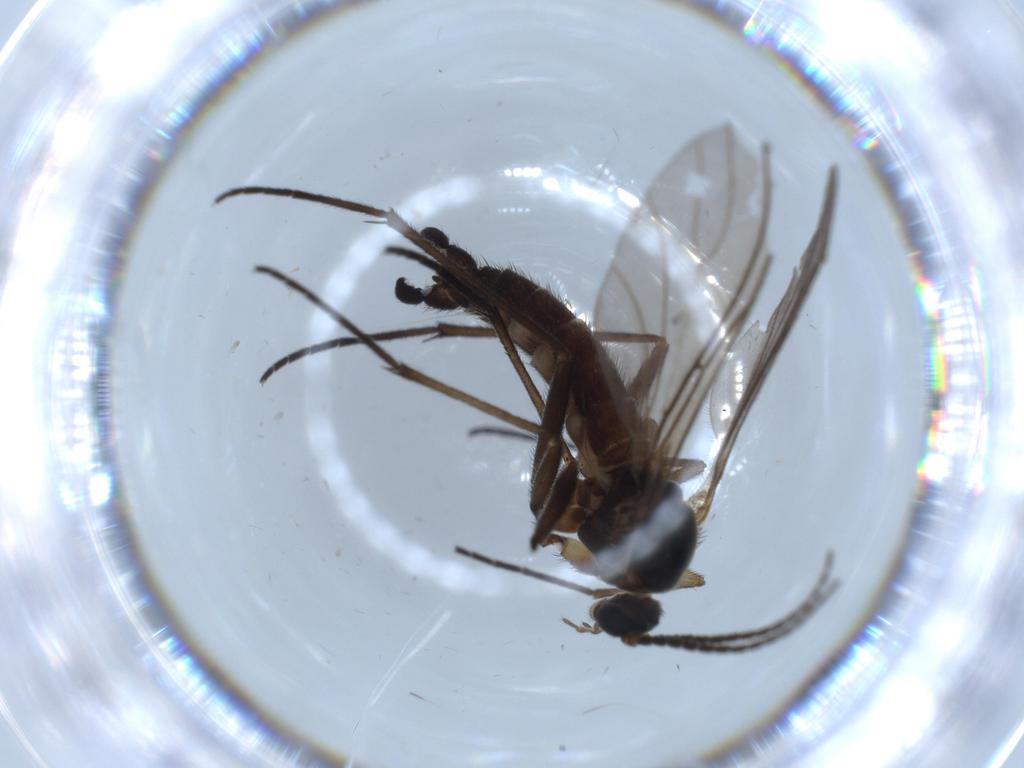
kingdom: Animalia
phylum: Arthropoda
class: Insecta
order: Diptera
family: Sciaridae
